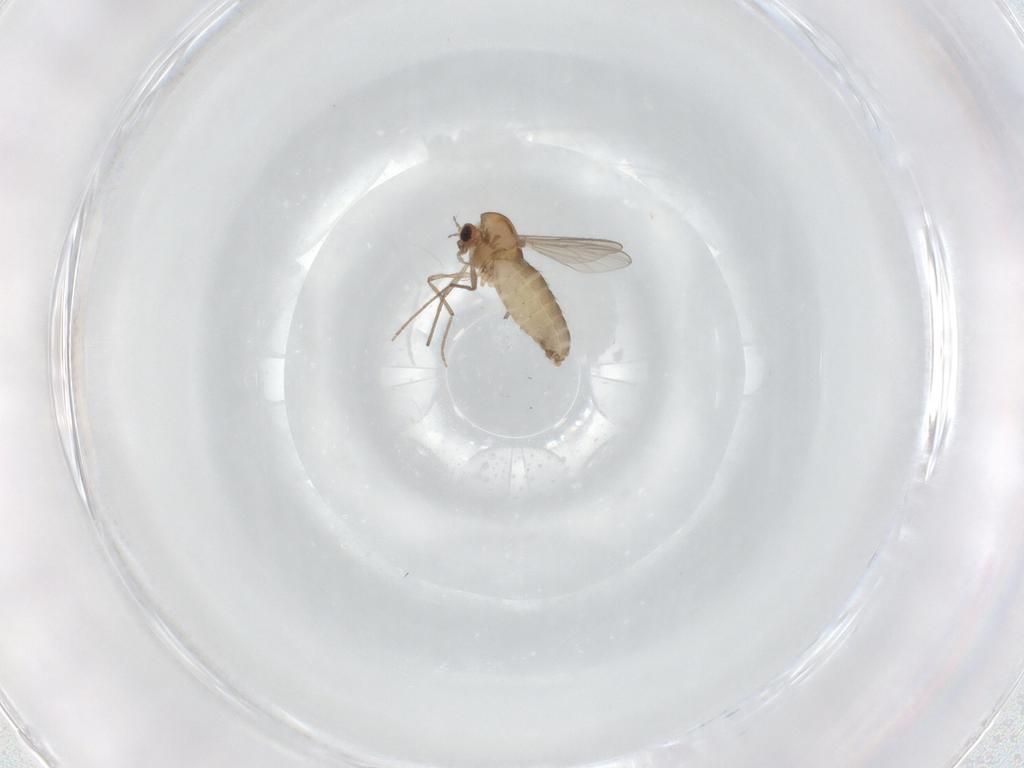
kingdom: Animalia
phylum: Arthropoda
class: Insecta
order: Diptera
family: Chironomidae
